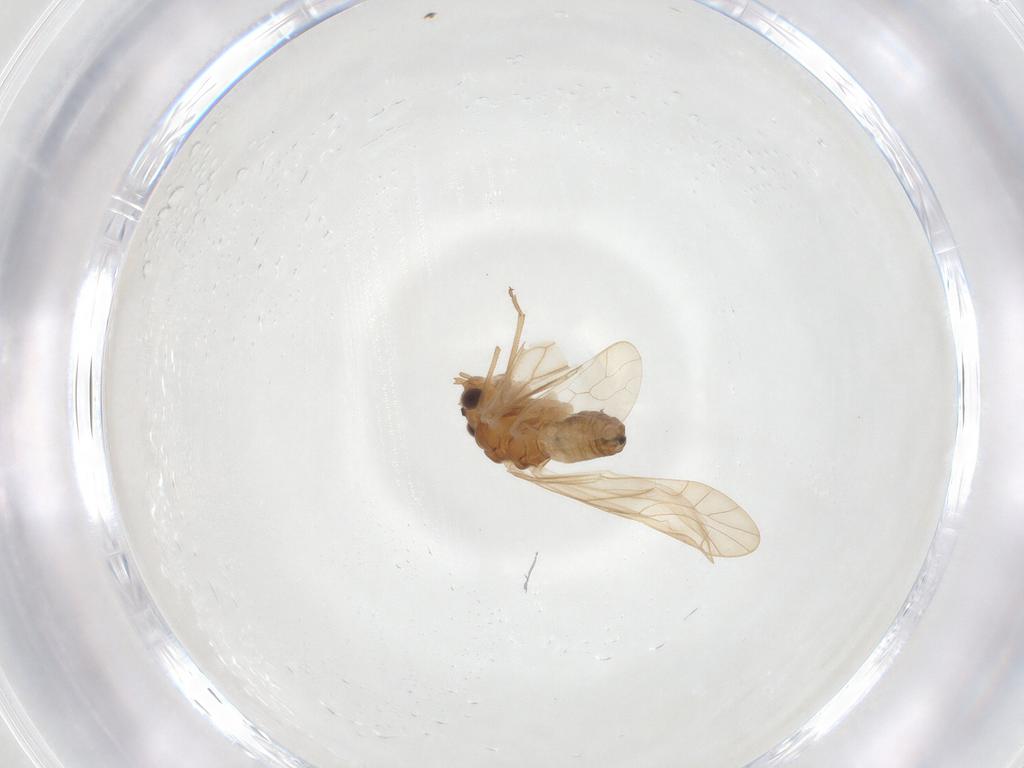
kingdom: Animalia
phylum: Arthropoda
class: Insecta
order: Psocodea
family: Philotarsidae
